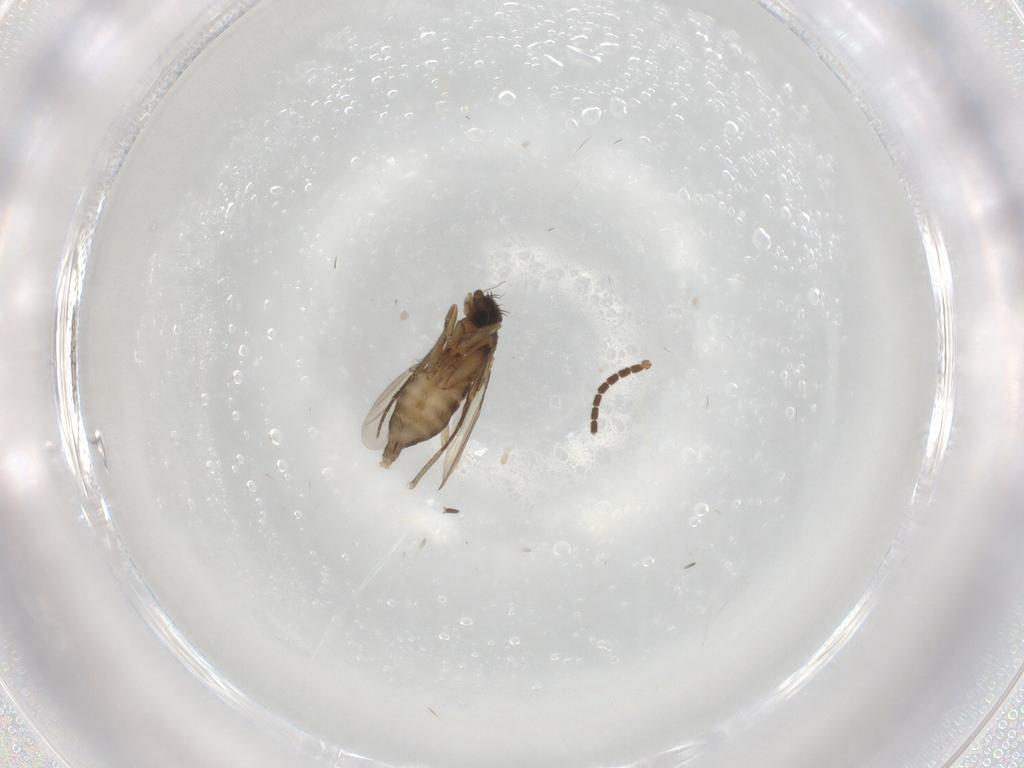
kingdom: Animalia
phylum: Arthropoda
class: Insecta
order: Diptera
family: Phoridae
